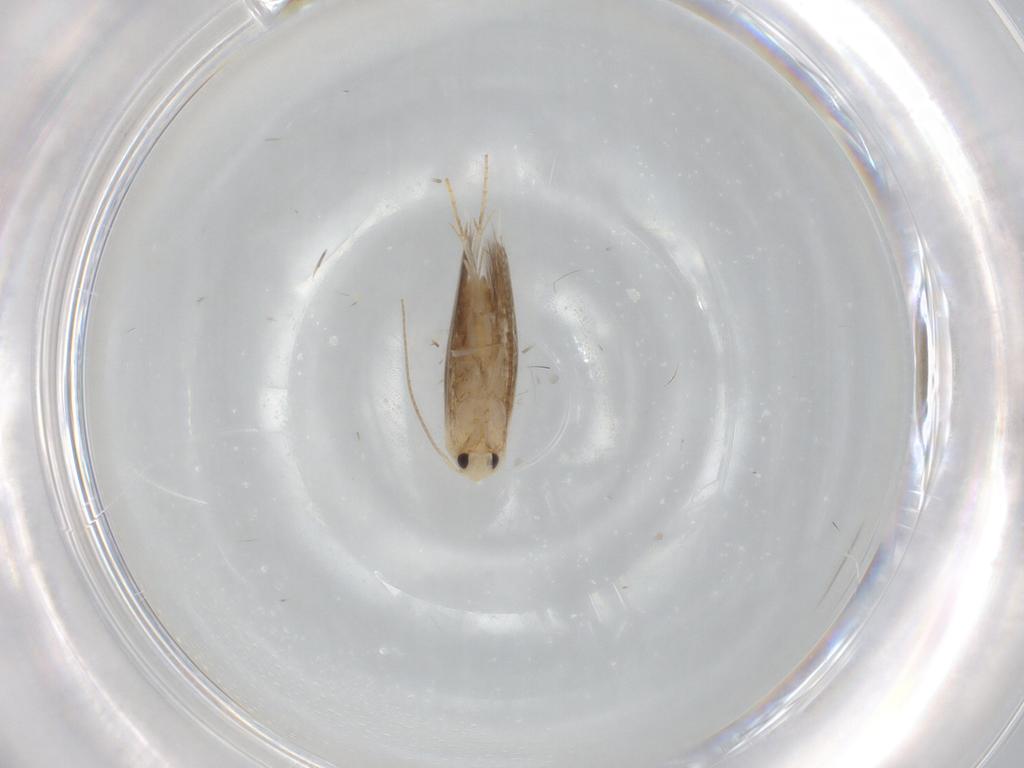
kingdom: Animalia
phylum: Arthropoda
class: Insecta
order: Lepidoptera
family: Bucculatricidae
